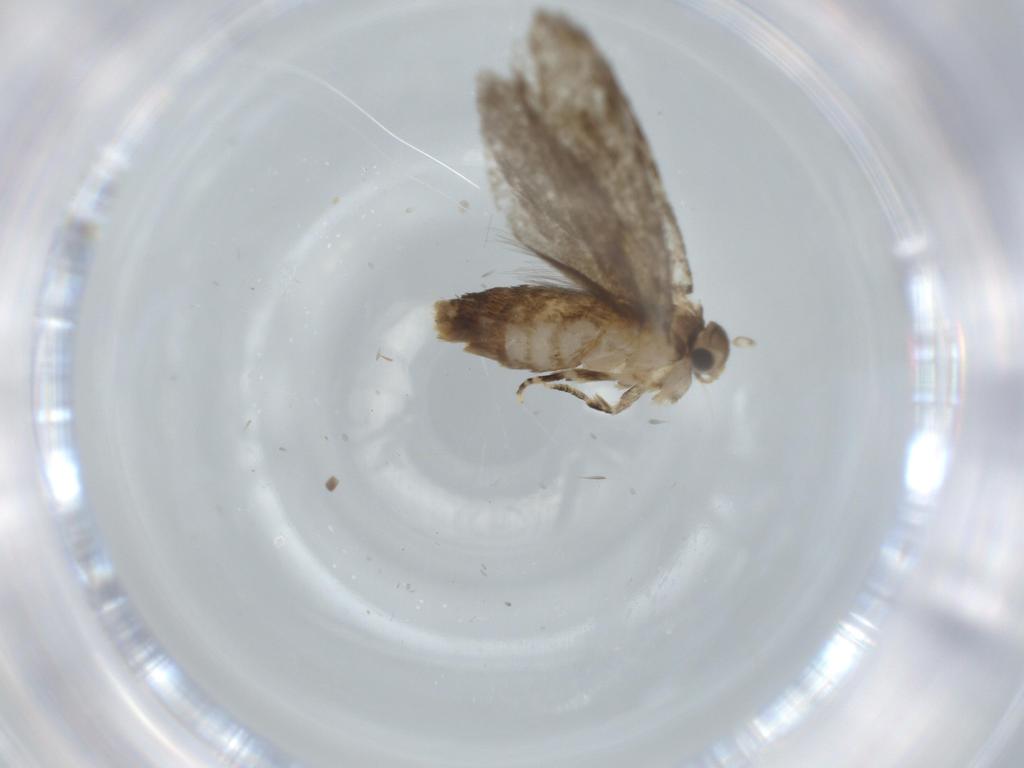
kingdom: Animalia
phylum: Arthropoda
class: Insecta
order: Lepidoptera
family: Tineidae
